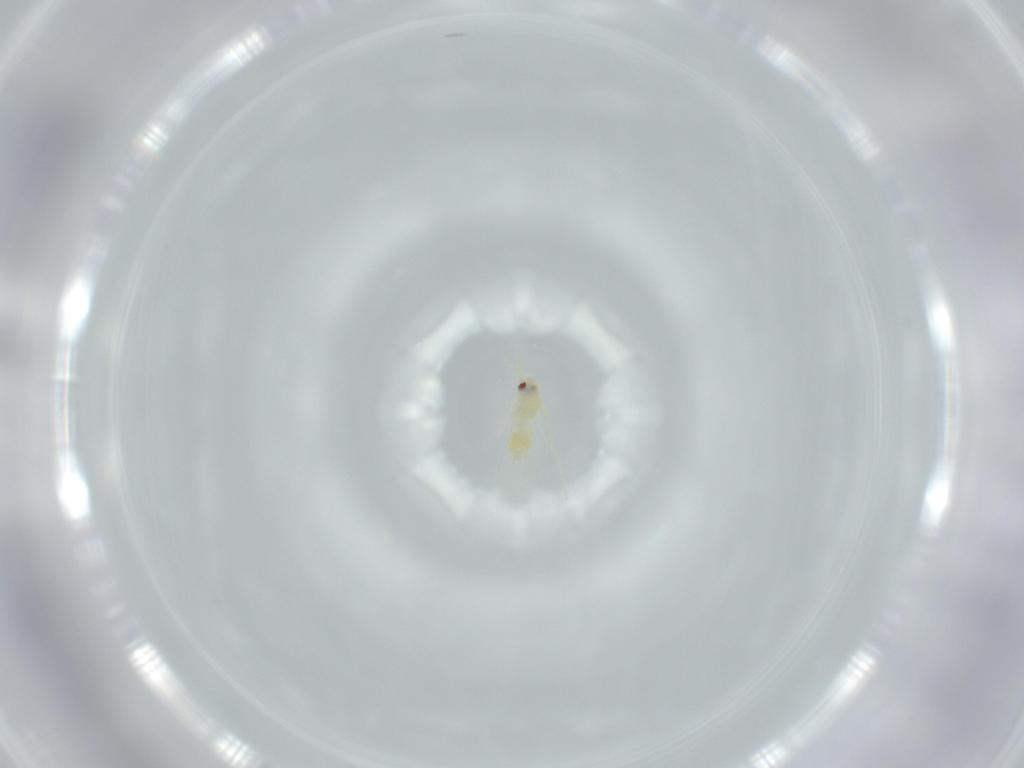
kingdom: Animalia
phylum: Arthropoda
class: Insecta
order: Hemiptera
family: Aleyrodidae
